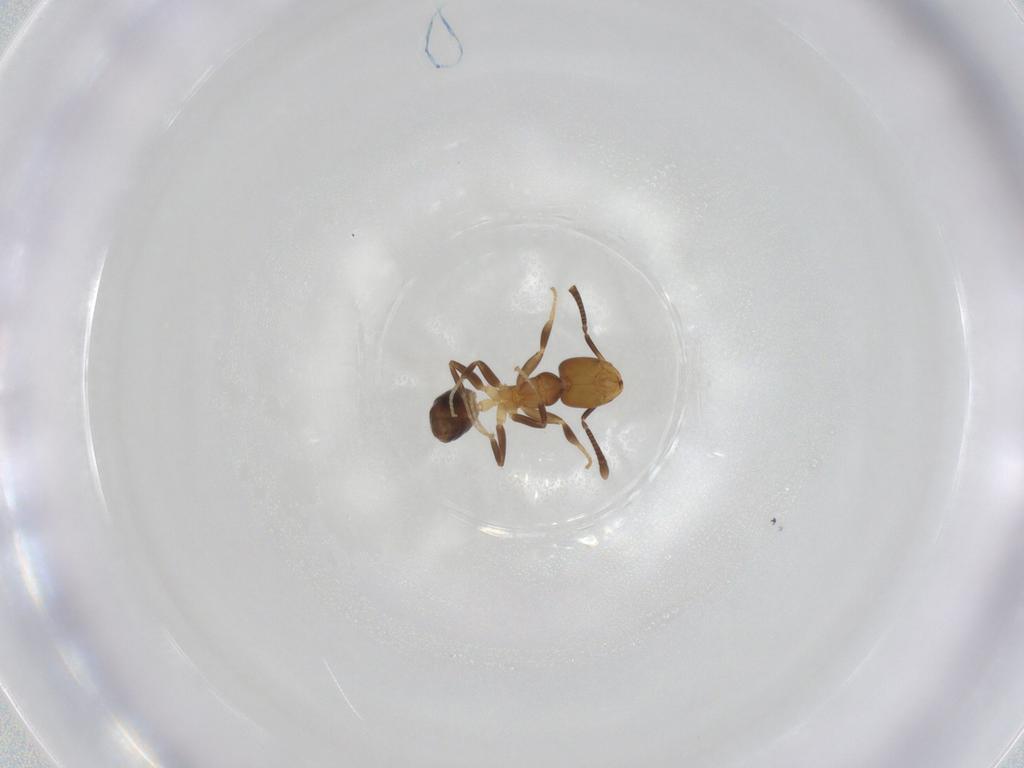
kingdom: Animalia
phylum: Arthropoda
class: Insecta
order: Hymenoptera
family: Formicidae
